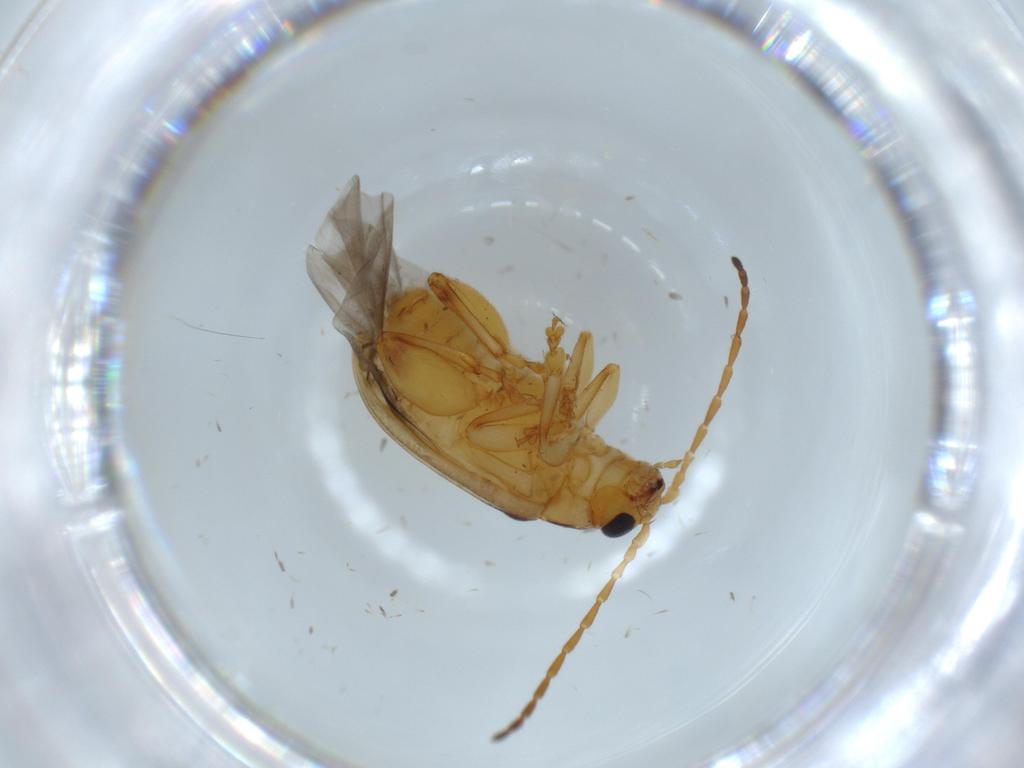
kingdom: Animalia
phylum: Arthropoda
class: Insecta
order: Coleoptera
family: Chrysomelidae
